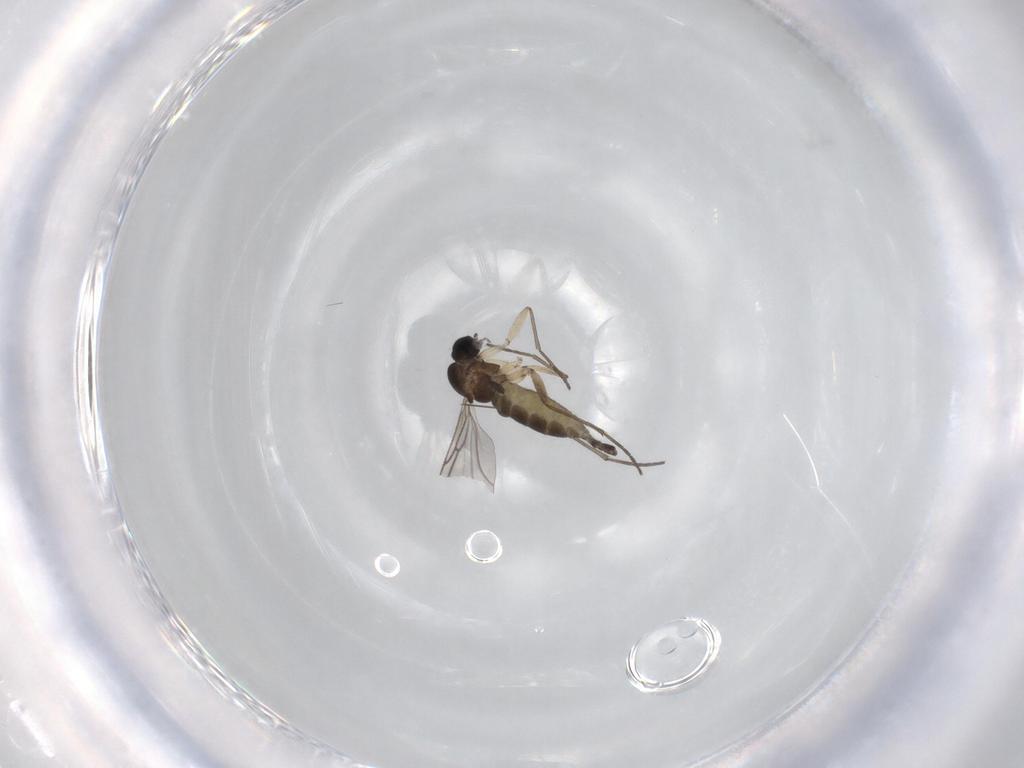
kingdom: Animalia
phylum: Arthropoda
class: Insecta
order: Diptera
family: Sciaridae
